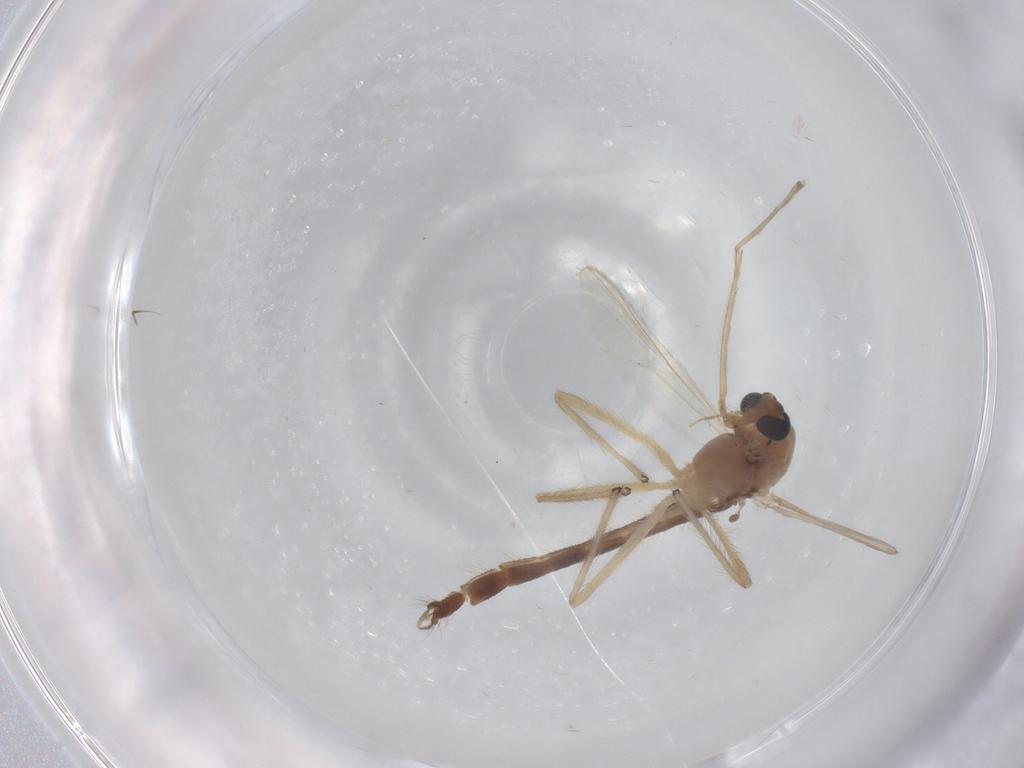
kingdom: Animalia
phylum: Arthropoda
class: Insecta
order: Diptera
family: Chironomidae
